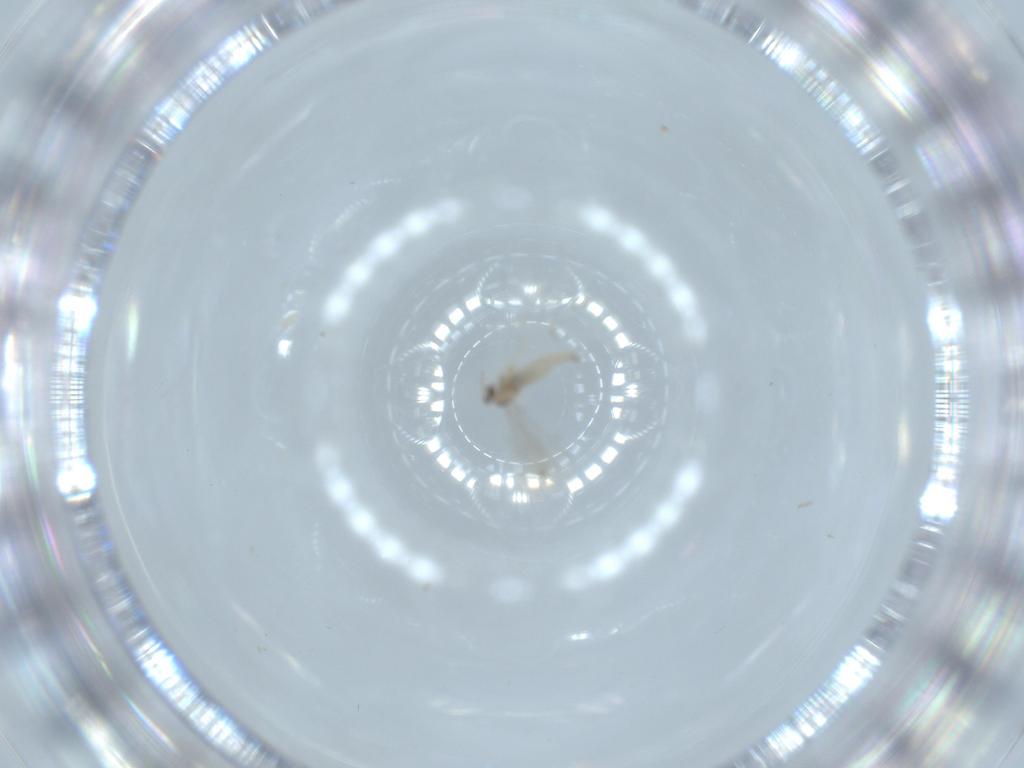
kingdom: Animalia
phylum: Arthropoda
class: Insecta
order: Diptera
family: Cecidomyiidae
